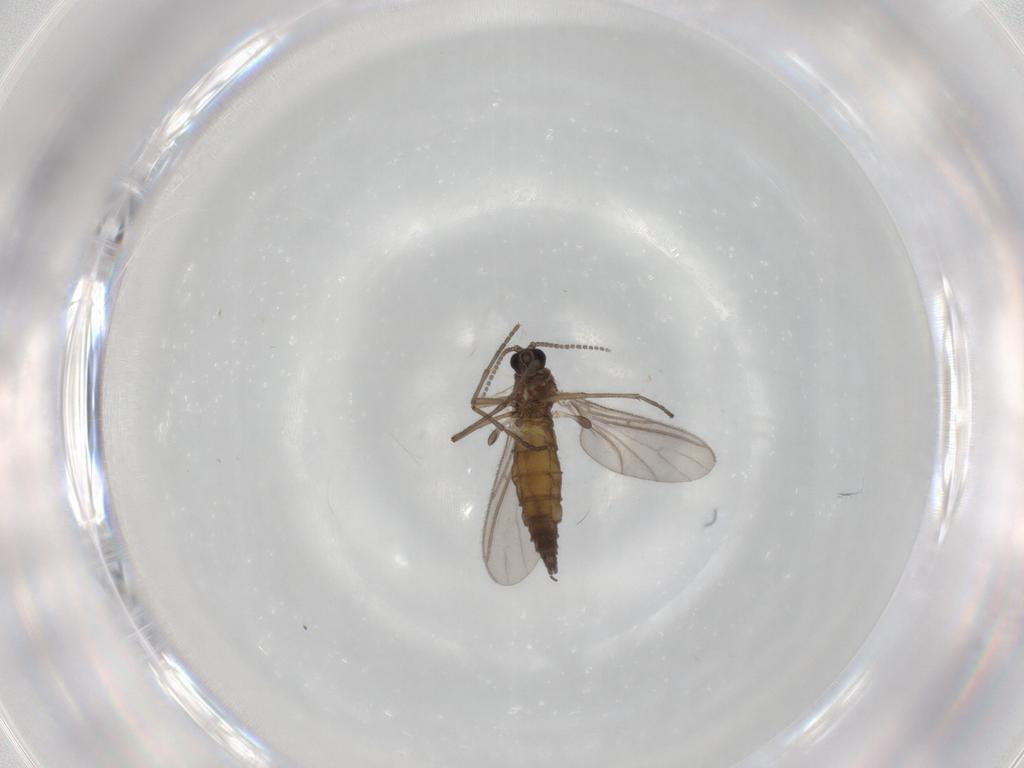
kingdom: Animalia
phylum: Arthropoda
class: Insecta
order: Diptera
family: Sciaridae
